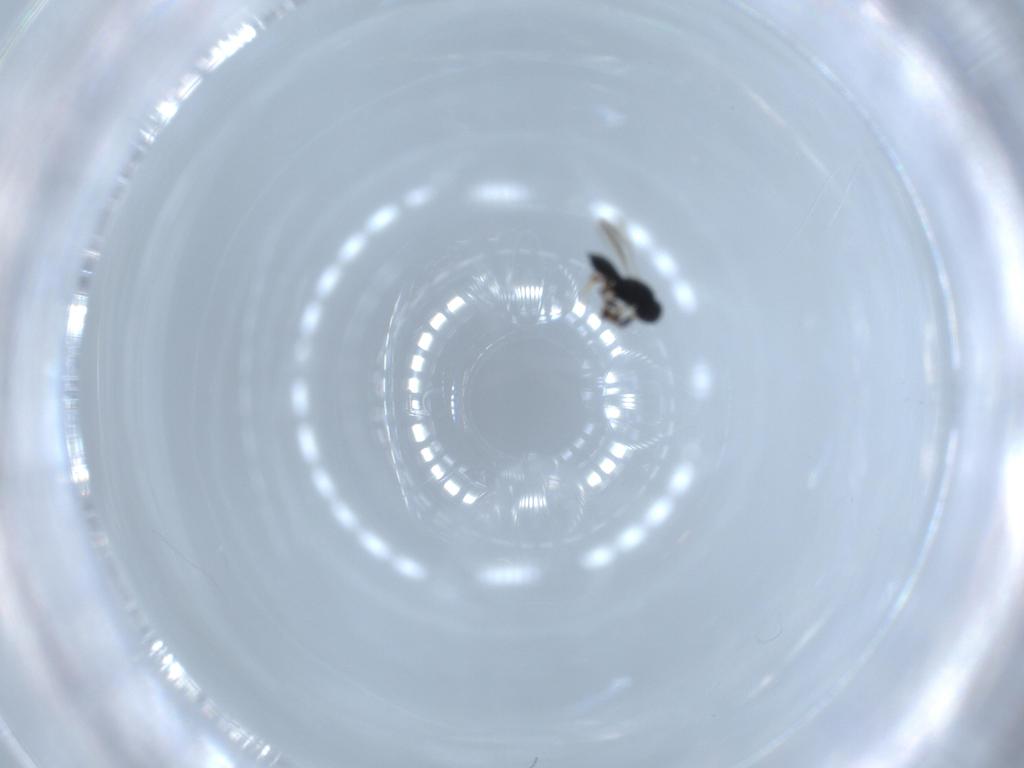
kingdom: Animalia
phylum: Arthropoda
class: Insecta
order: Hymenoptera
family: Scelionidae
